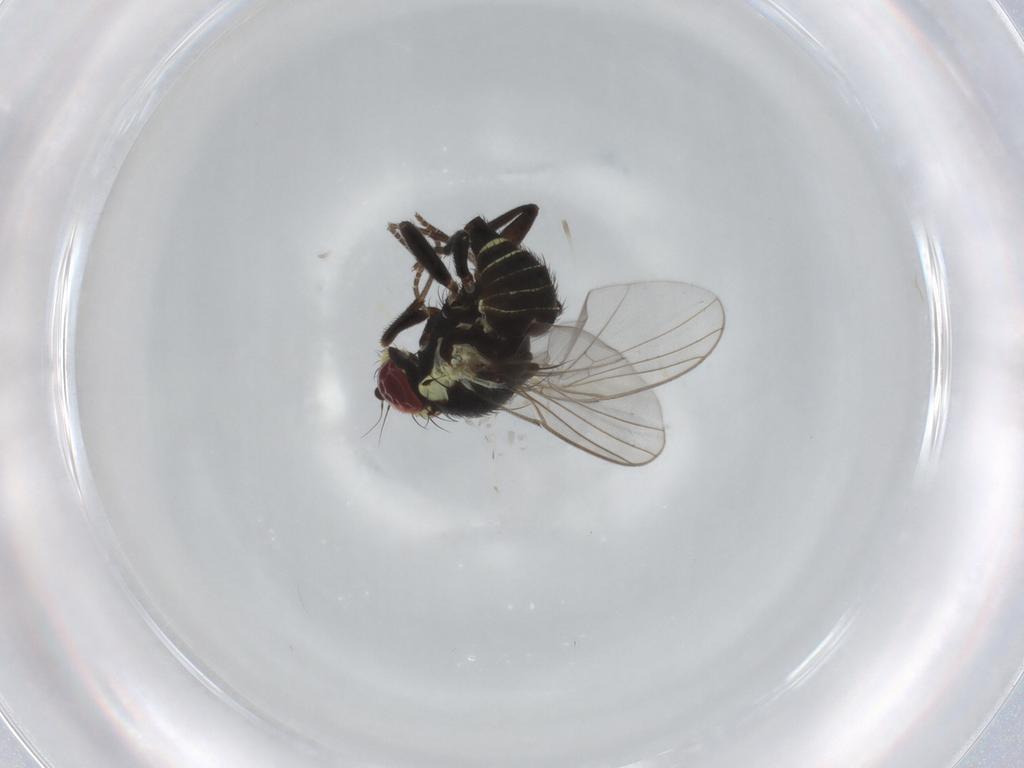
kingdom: Animalia
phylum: Arthropoda
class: Insecta
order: Diptera
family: Agromyzidae
